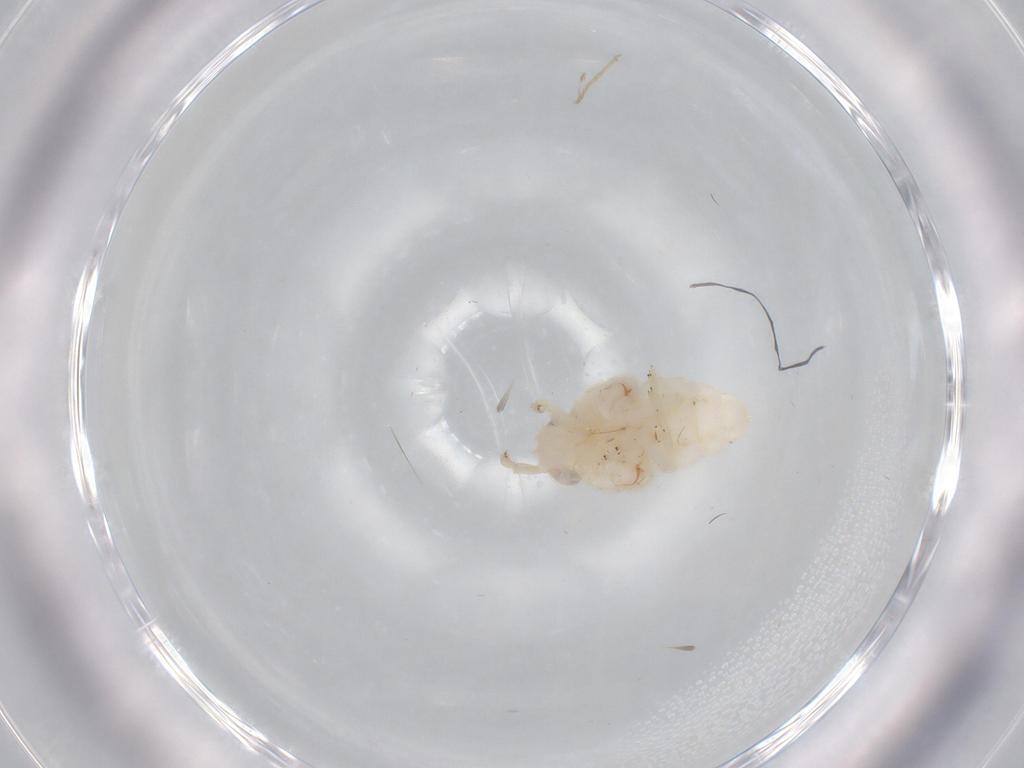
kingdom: Animalia
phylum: Arthropoda
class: Insecta
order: Hemiptera
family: Nogodinidae
